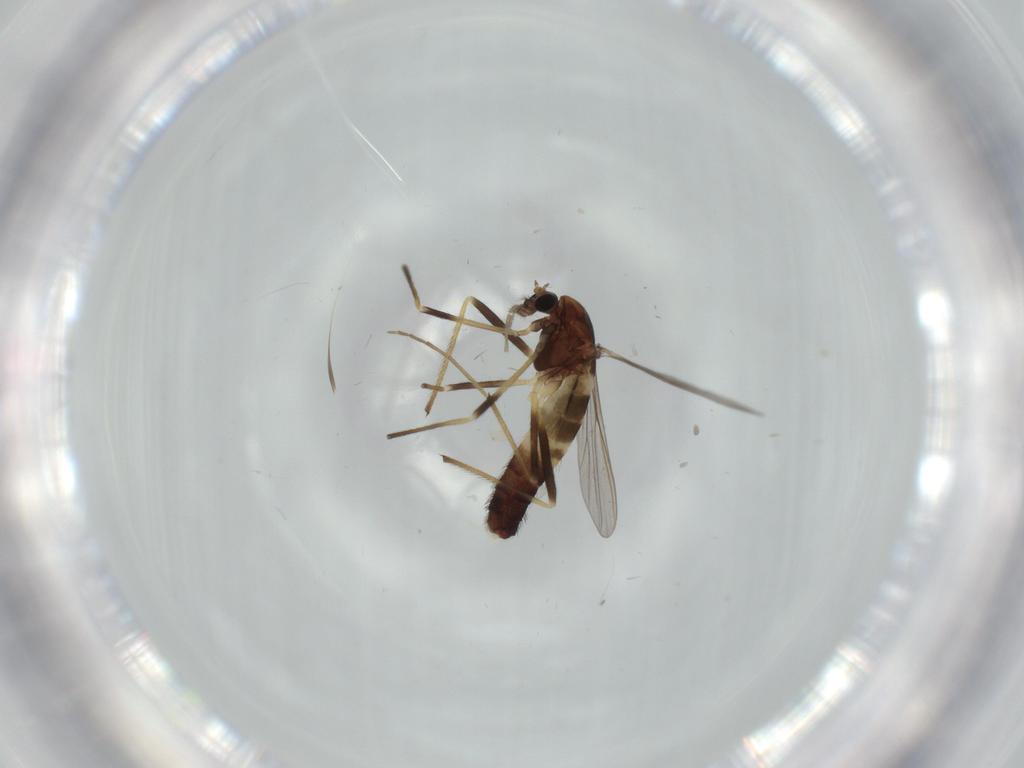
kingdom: Animalia
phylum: Arthropoda
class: Insecta
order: Diptera
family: Chironomidae
